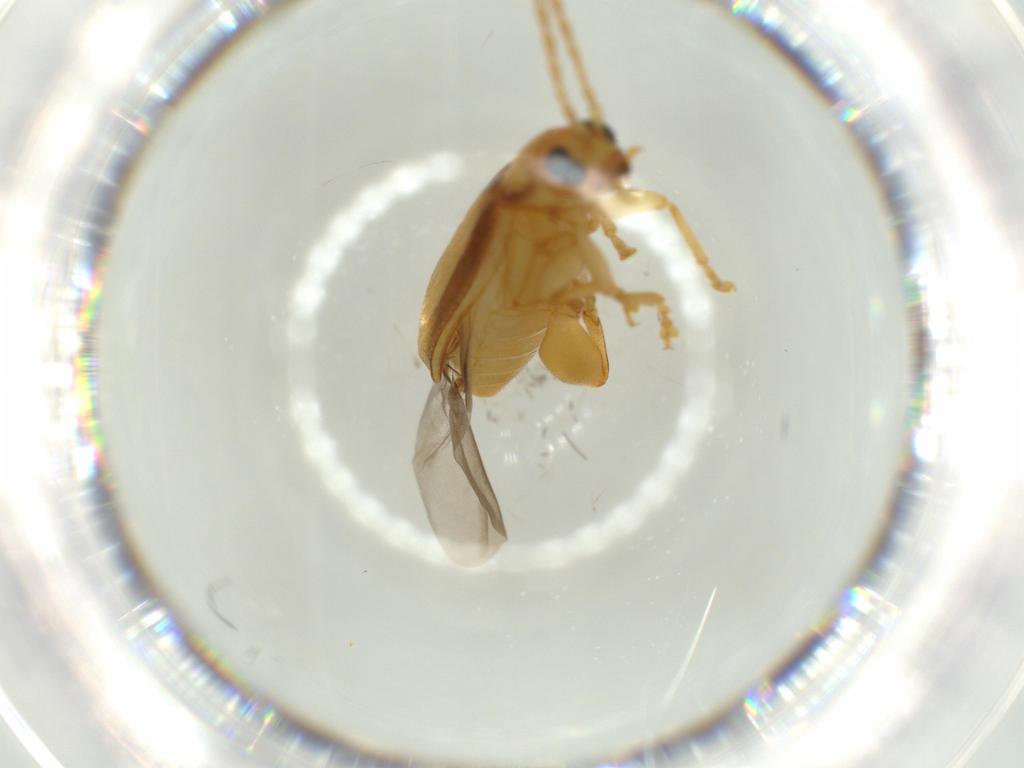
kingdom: Animalia
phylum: Arthropoda
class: Insecta
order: Coleoptera
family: Chrysomelidae
